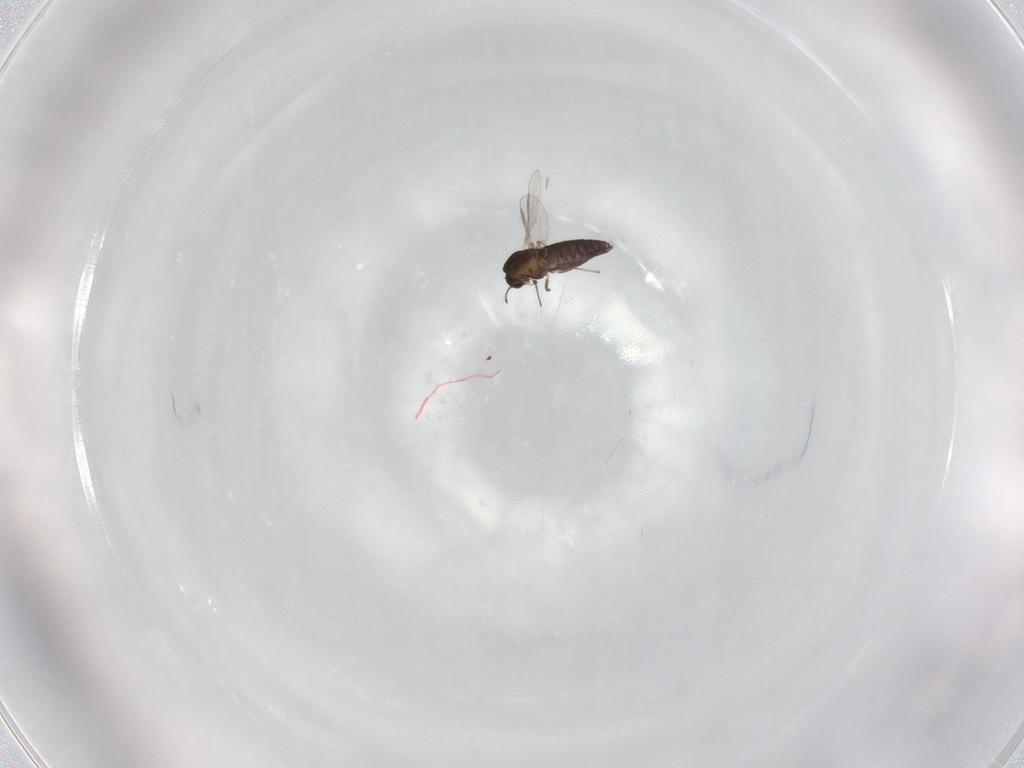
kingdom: Animalia
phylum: Arthropoda
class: Insecta
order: Diptera
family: Chironomidae
